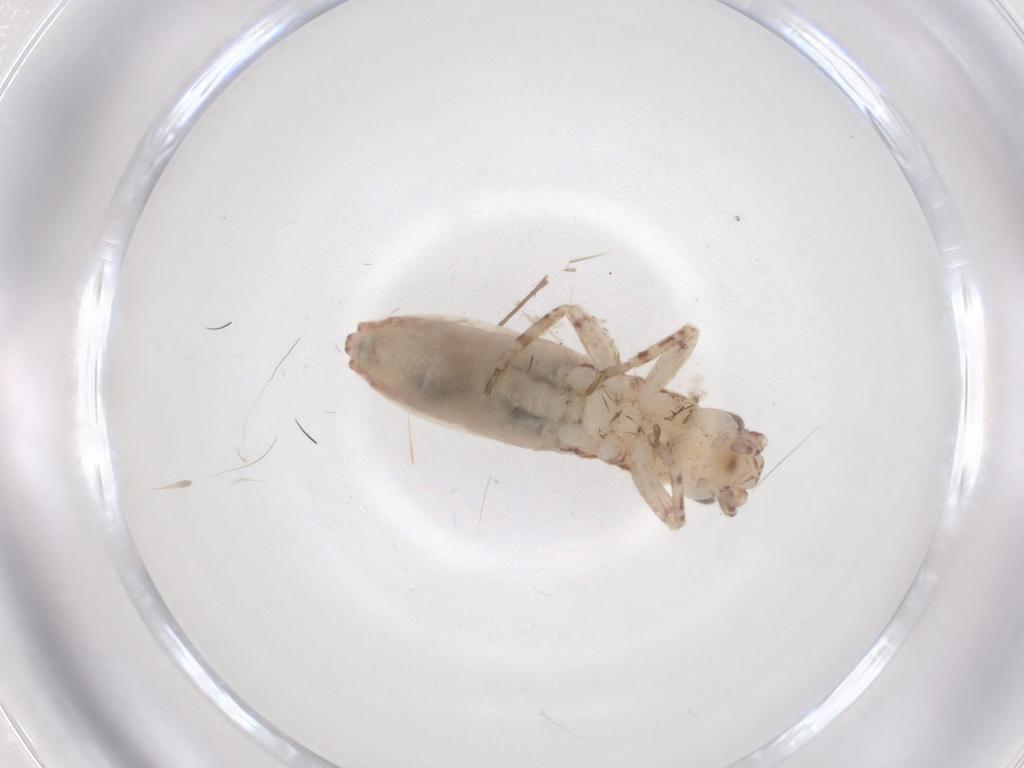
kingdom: Animalia
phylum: Arthropoda
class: Insecta
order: Orthoptera
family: Mogoplistidae
